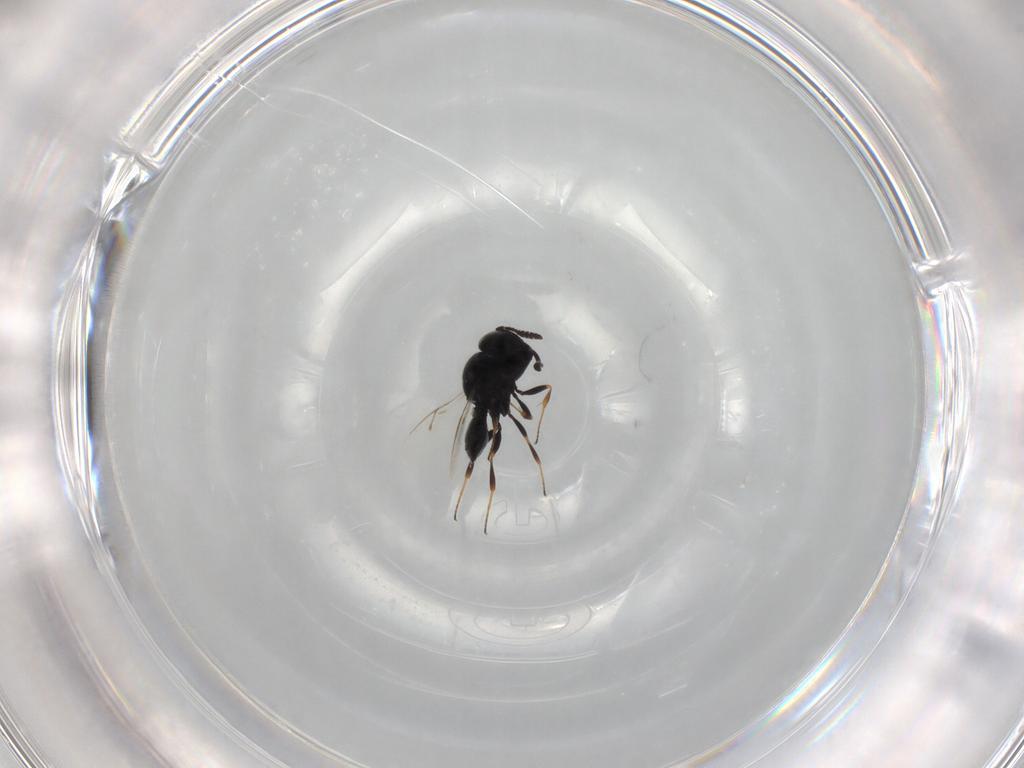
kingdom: Animalia
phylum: Arthropoda
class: Insecta
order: Hymenoptera
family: Scelionidae
